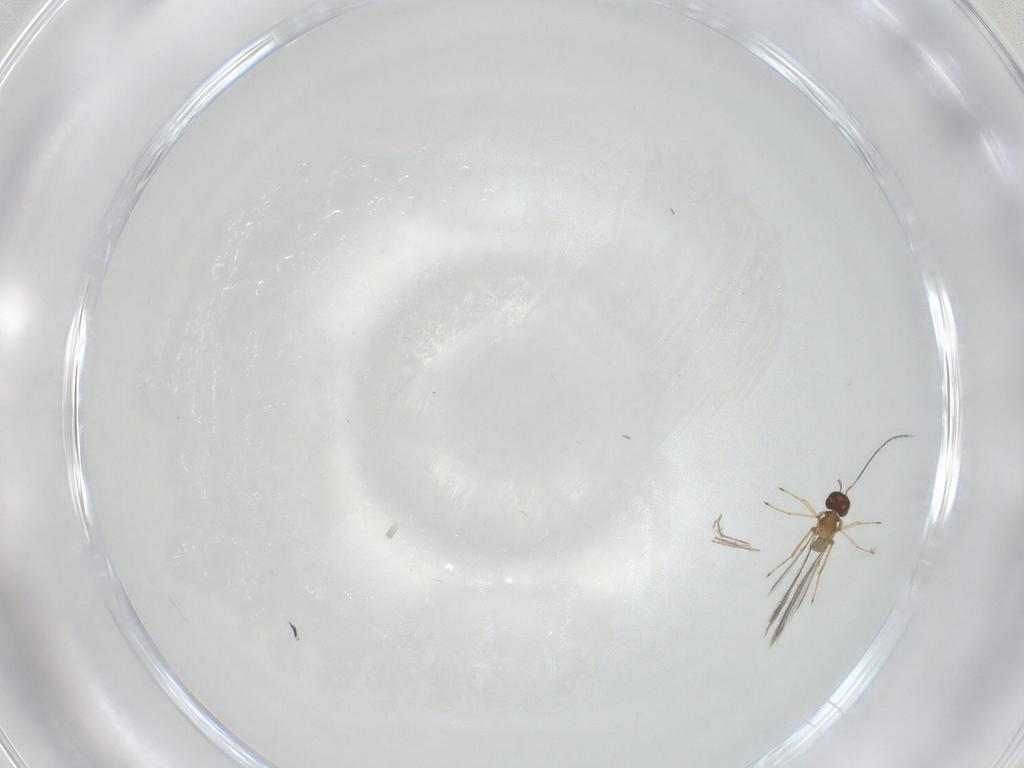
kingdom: Animalia
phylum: Arthropoda
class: Insecta
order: Hymenoptera
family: Mymaridae
